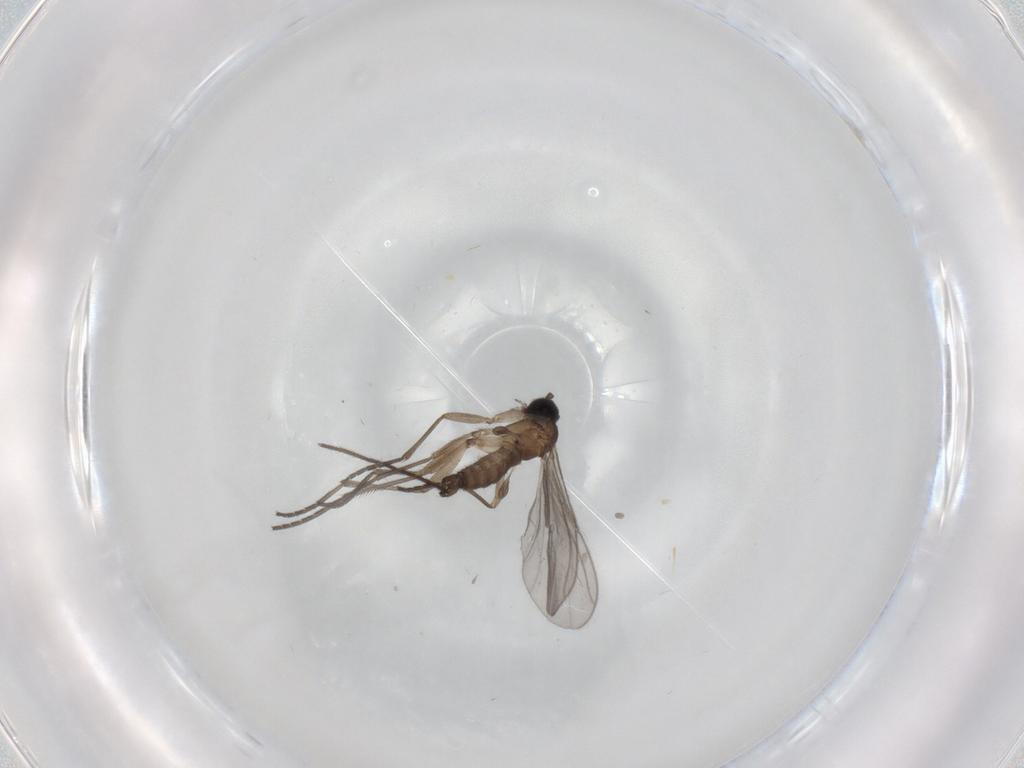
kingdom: Animalia
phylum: Arthropoda
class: Insecta
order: Diptera
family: Sciaridae
